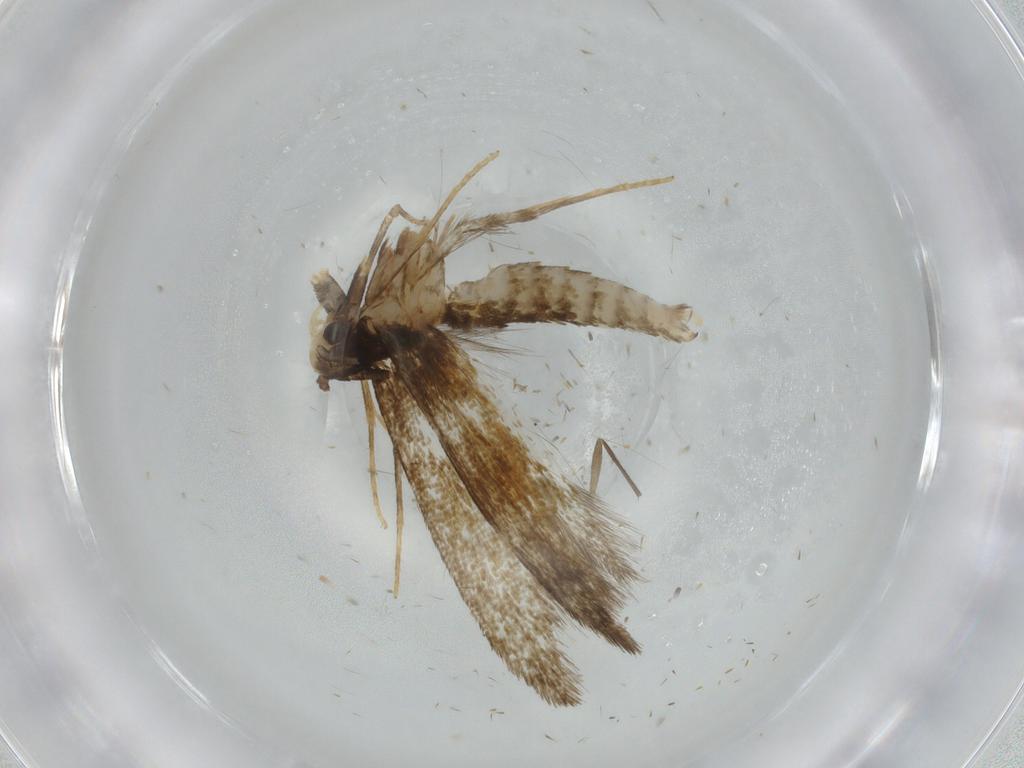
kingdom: Animalia
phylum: Arthropoda
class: Insecta
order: Lepidoptera
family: Tineidae
